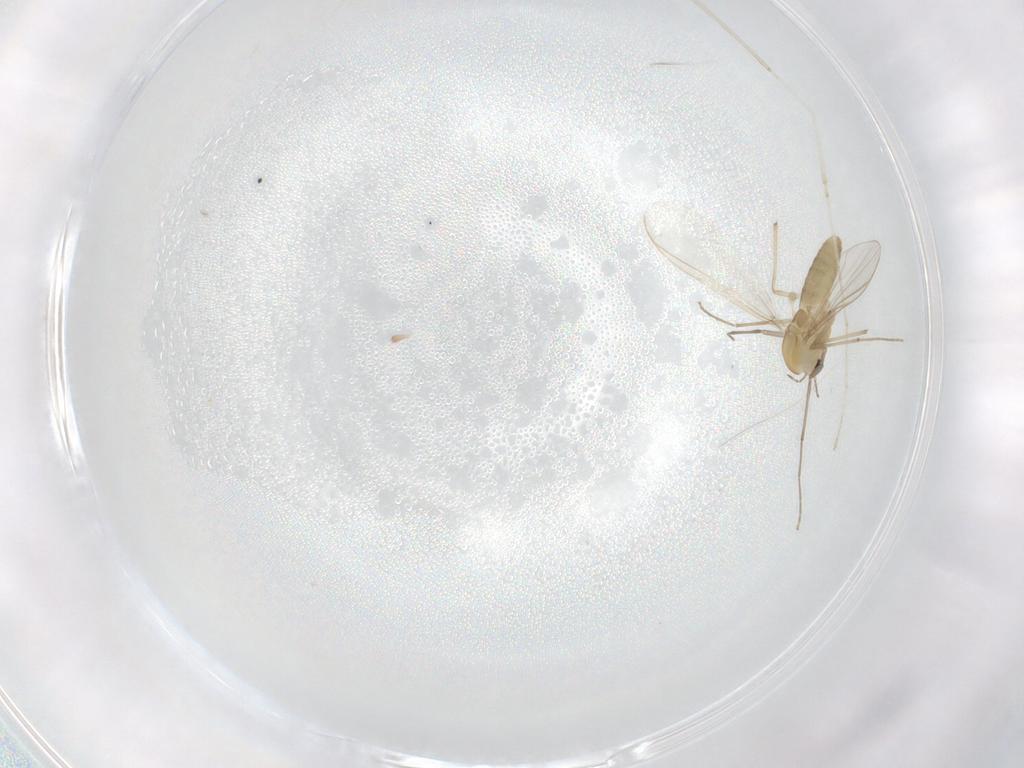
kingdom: Animalia
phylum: Arthropoda
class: Insecta
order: Diptera
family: Chironomidae
